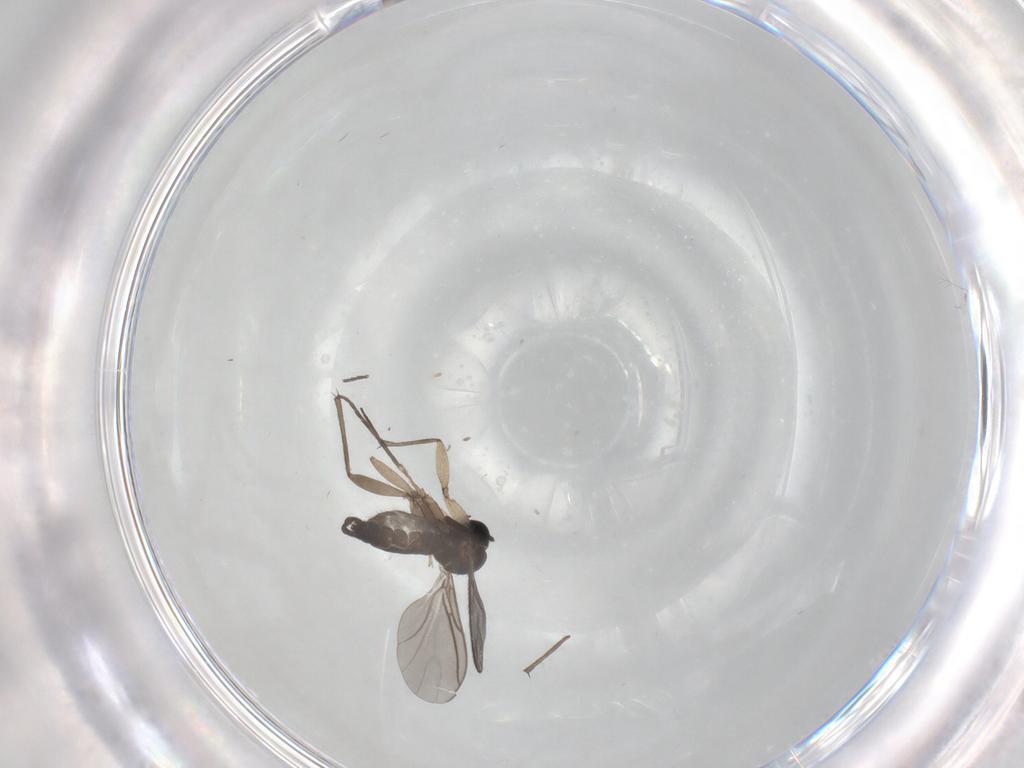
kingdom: Animalia
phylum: Arthropoda
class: Insecta
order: Diptera
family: Sciaridae
